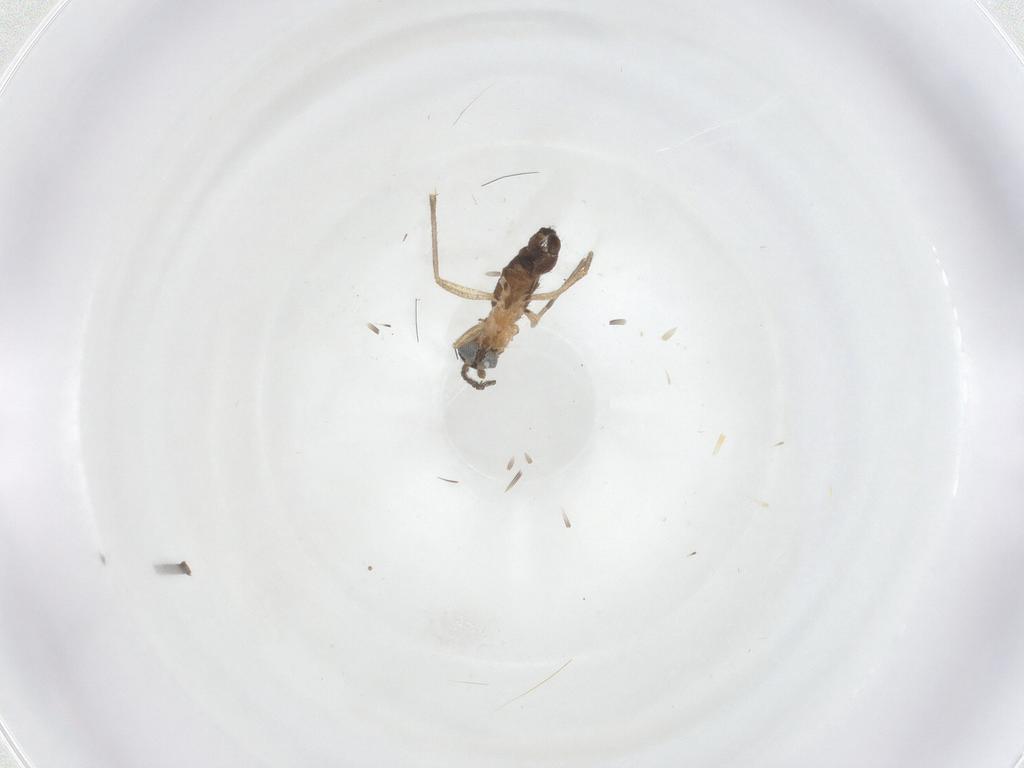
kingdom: Animalia
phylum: Arthropoda
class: Insecta
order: Diptera
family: Sciaridae
